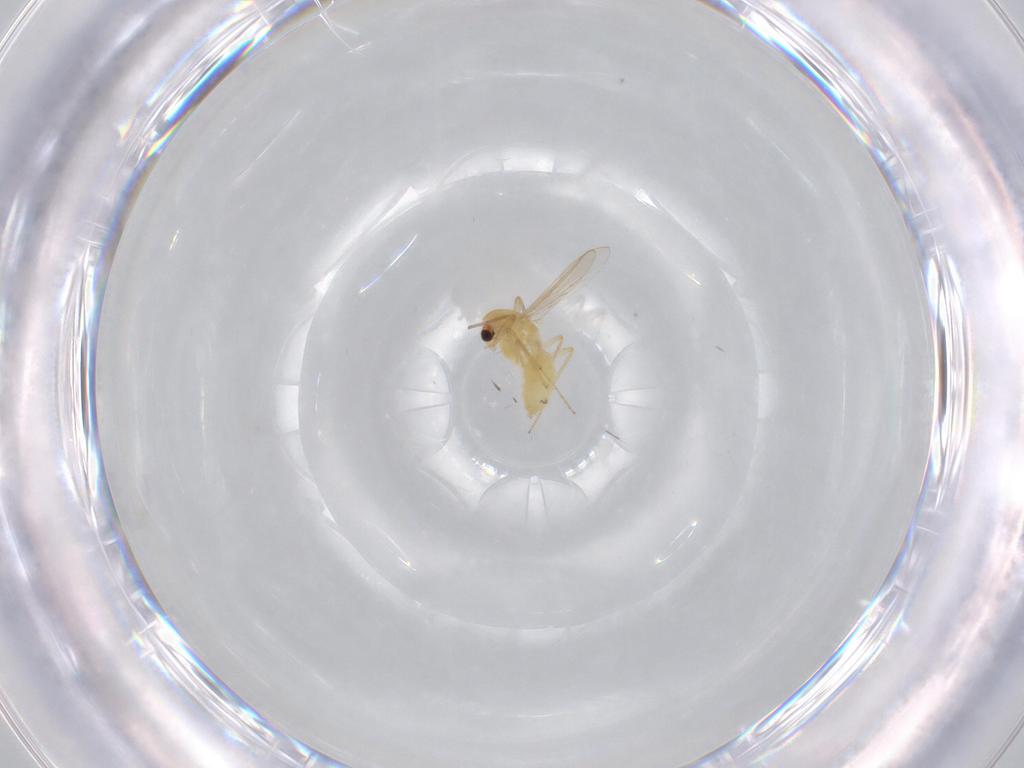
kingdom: Animalia
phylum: Arthropoda
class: Insecta
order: Diptera
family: Chironomidae
